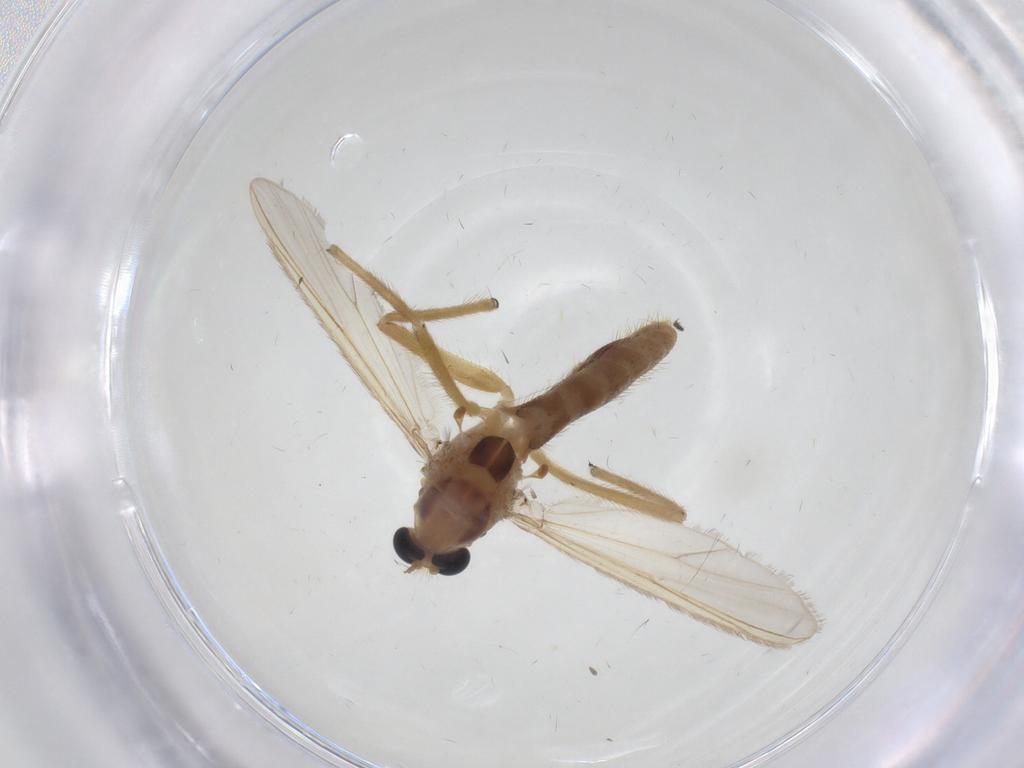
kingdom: Animalia
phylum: Arthropoda
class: Insecta
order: Diptera
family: Chironomidae
